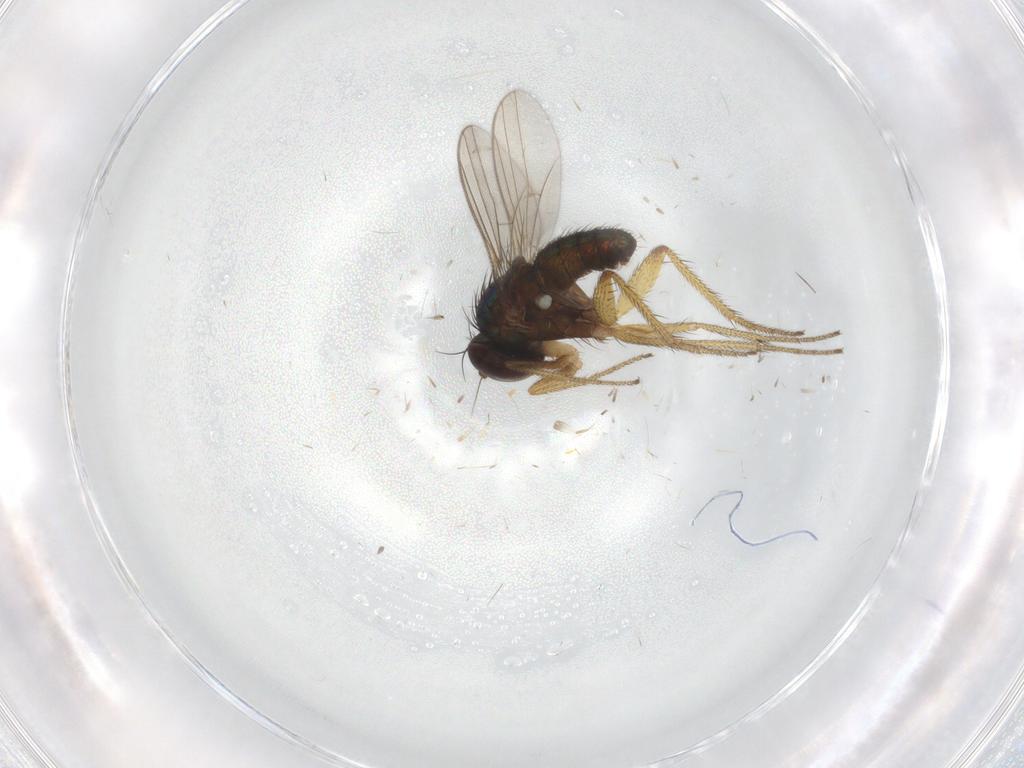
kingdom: Animalia
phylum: Arthropoda
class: Insecta
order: Diptera
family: Dolichopodidae
